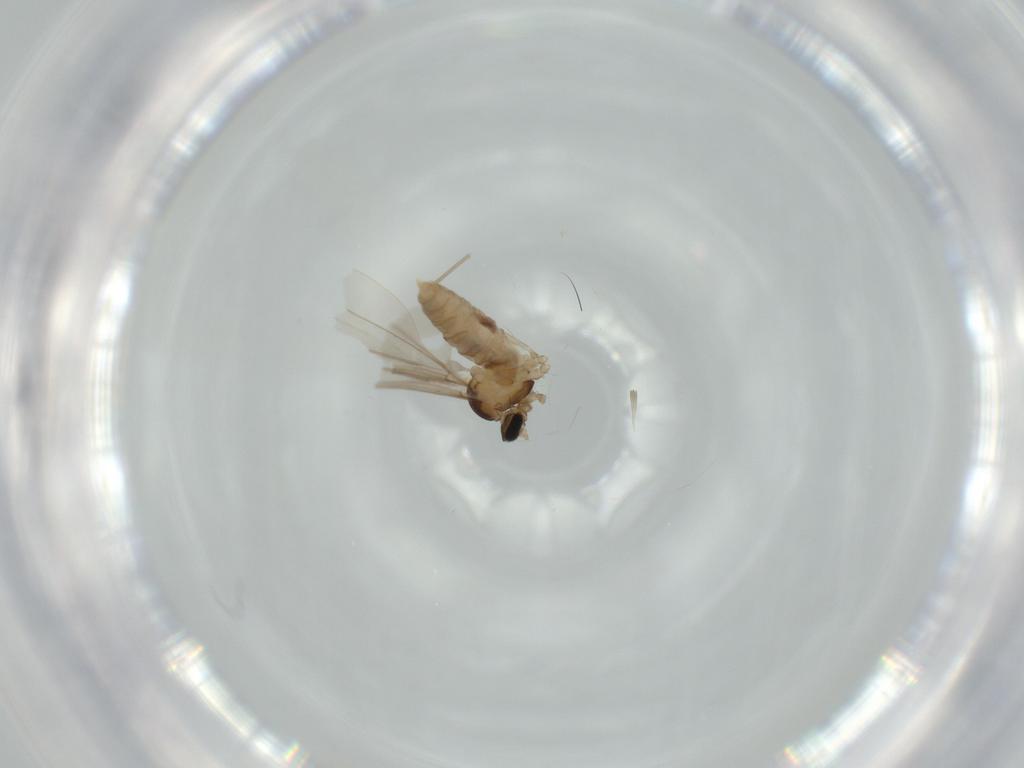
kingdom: Animalia
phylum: Arthropoda
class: Insecta
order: Diptera
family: Cecidomyiidae
